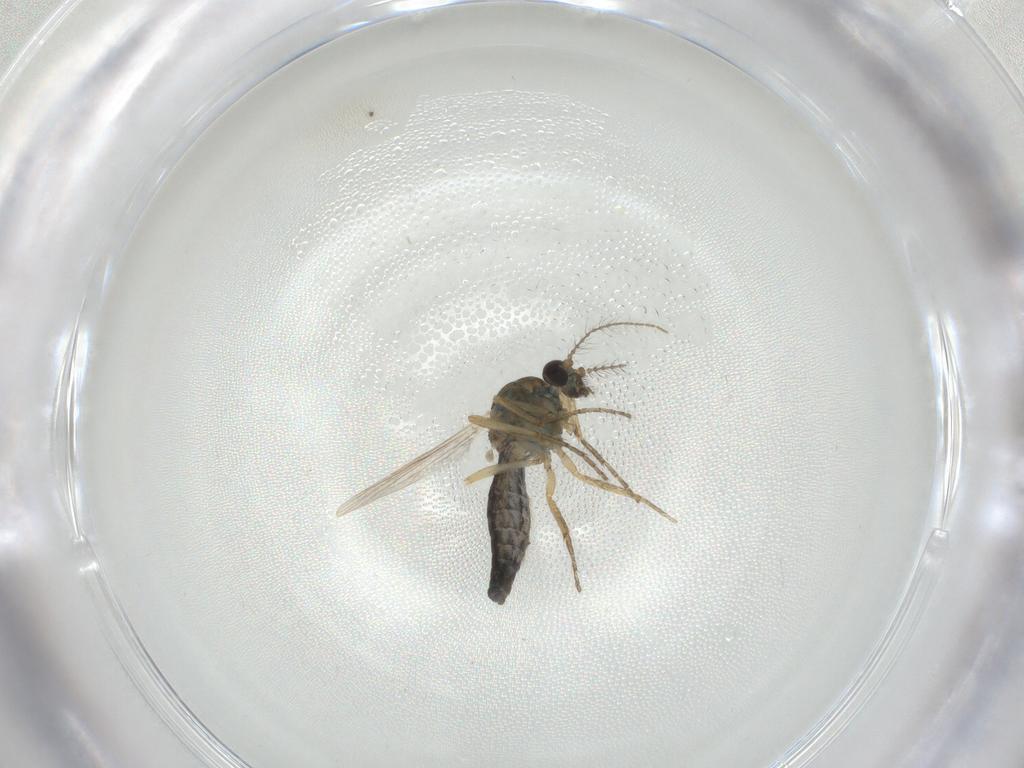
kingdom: Animalia
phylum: Arthropoda
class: Insecta
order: Diptera
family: Ceratopogonidae
